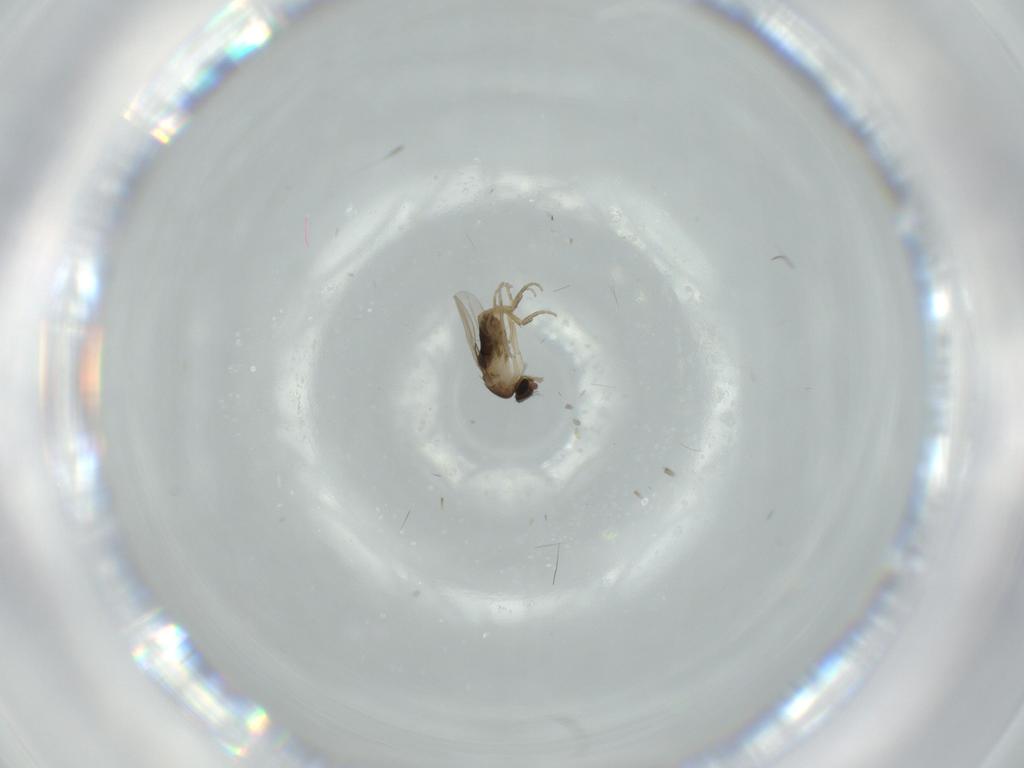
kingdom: Animalia
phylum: Arthropoda
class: Insecta
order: Diptera
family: Phoridae
